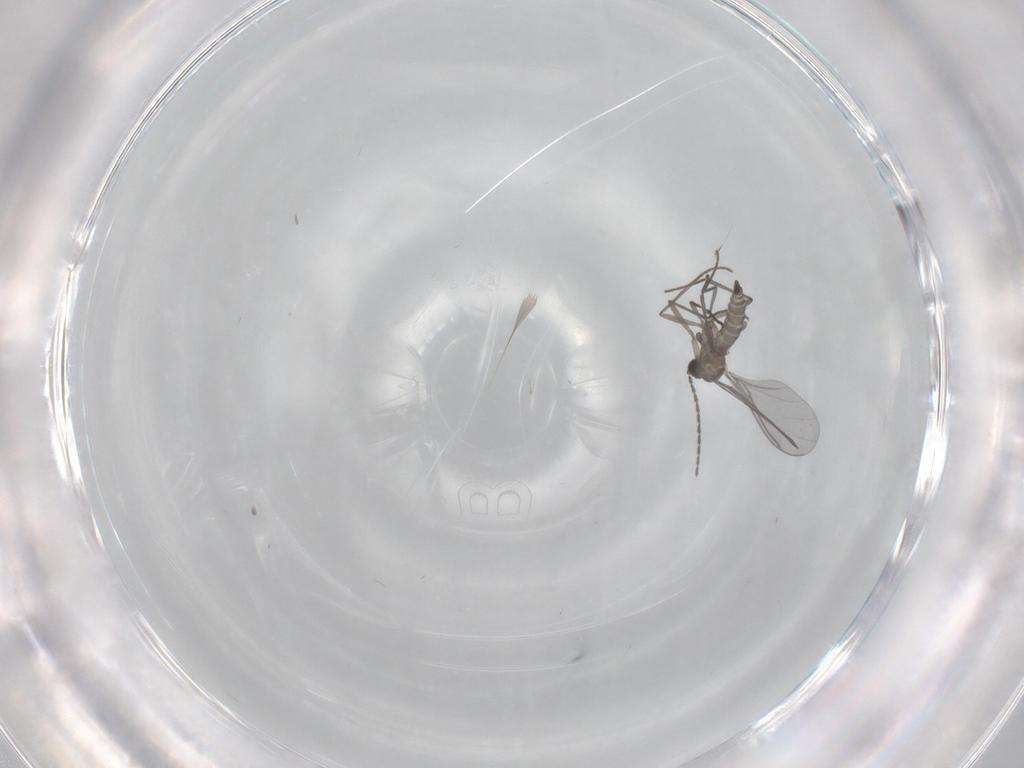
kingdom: Animalia
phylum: Arthropoda
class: Insecta
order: Diptera
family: Sciaridae
